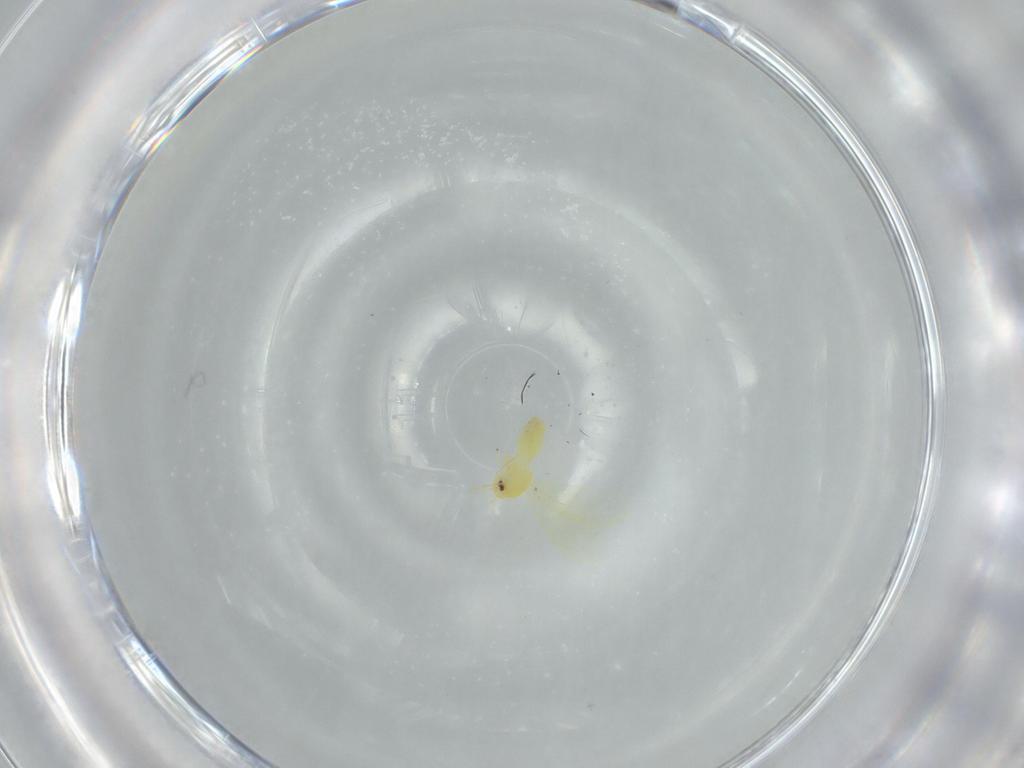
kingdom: Animalia
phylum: Arthropoda
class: Insecta
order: Hemiptera
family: Aleyrodidae
